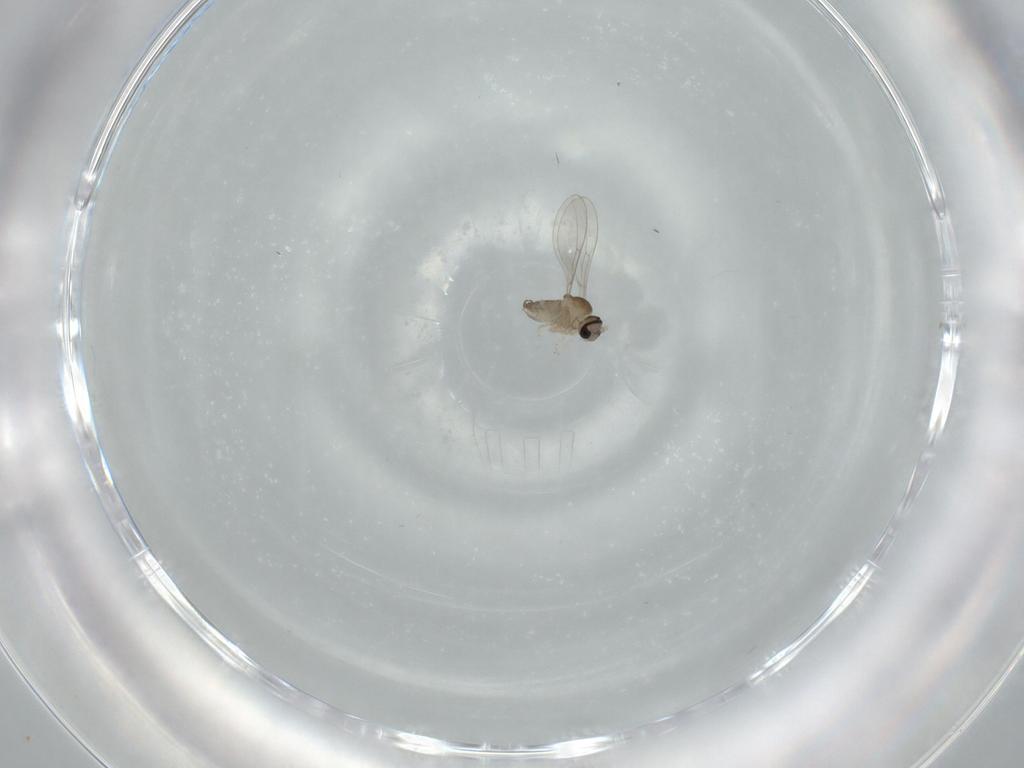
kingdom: Animalia
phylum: Arthropoda
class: Insecta
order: Diptera
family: Cecidomyiidae
